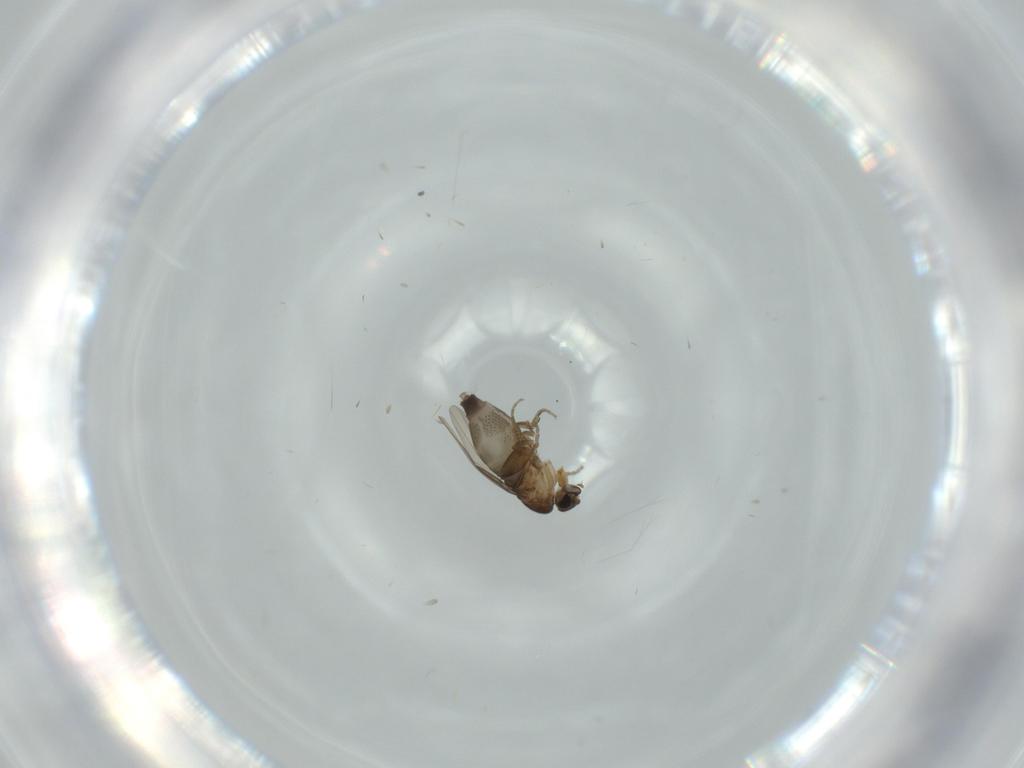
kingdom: Animalia
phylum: Arthropoda
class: Insecta
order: Diptera
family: Phoridae
